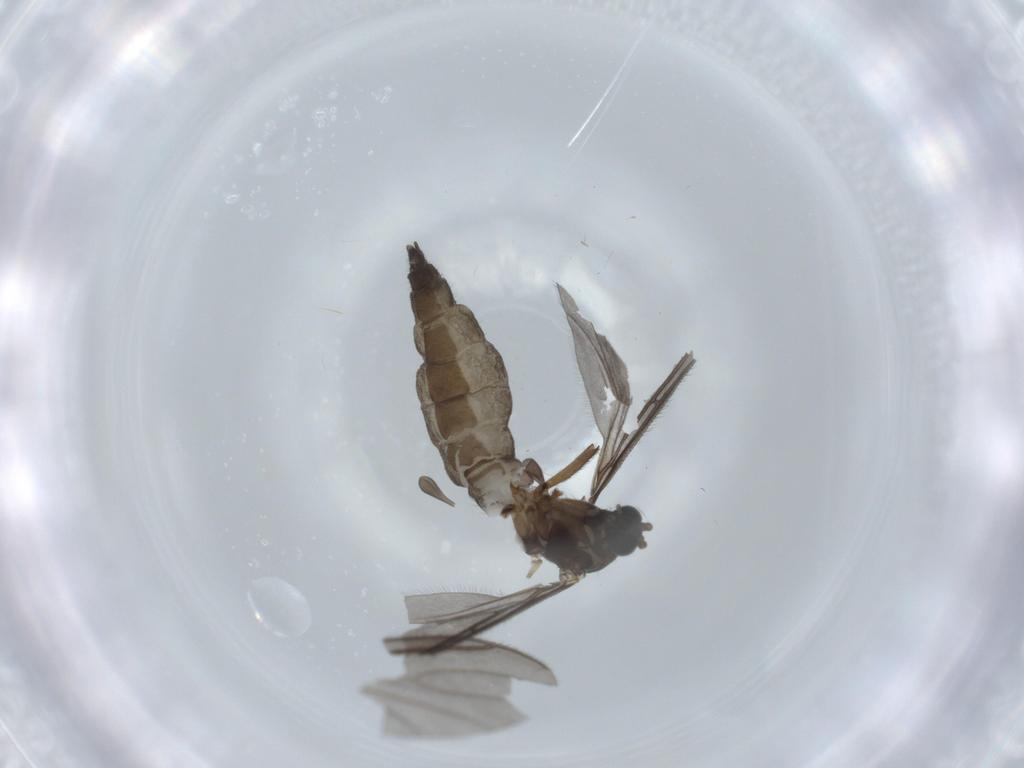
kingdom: Animalia
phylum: Arthropoda
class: Insecta
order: Diptera
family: Sciaridae
